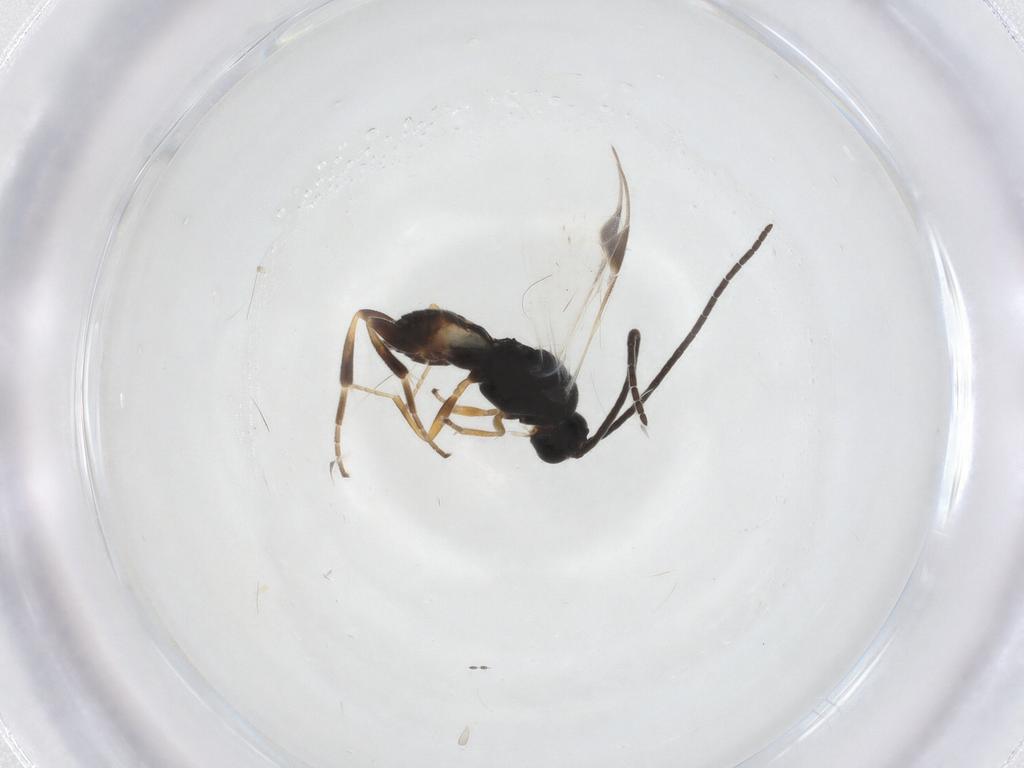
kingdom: Animalia
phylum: Arthropoda
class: Insecta
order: Hymenoptera
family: Braconidae
